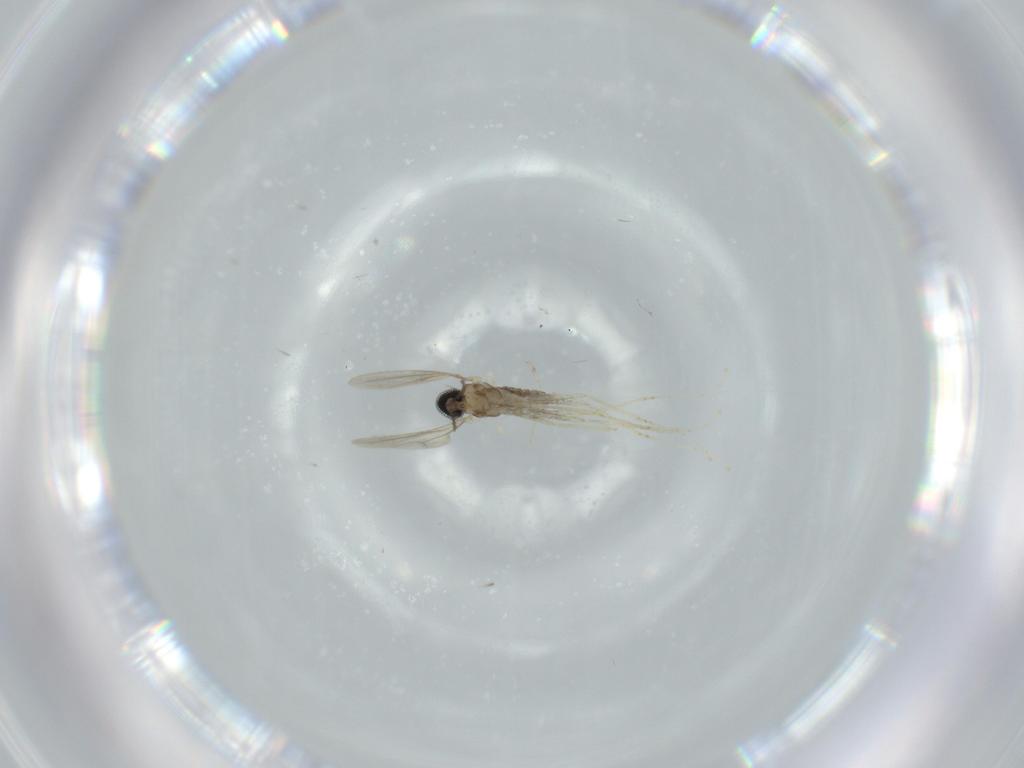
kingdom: Animalia
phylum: Arthropoda
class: Insecta
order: Diptera
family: Cecidomyiidae
